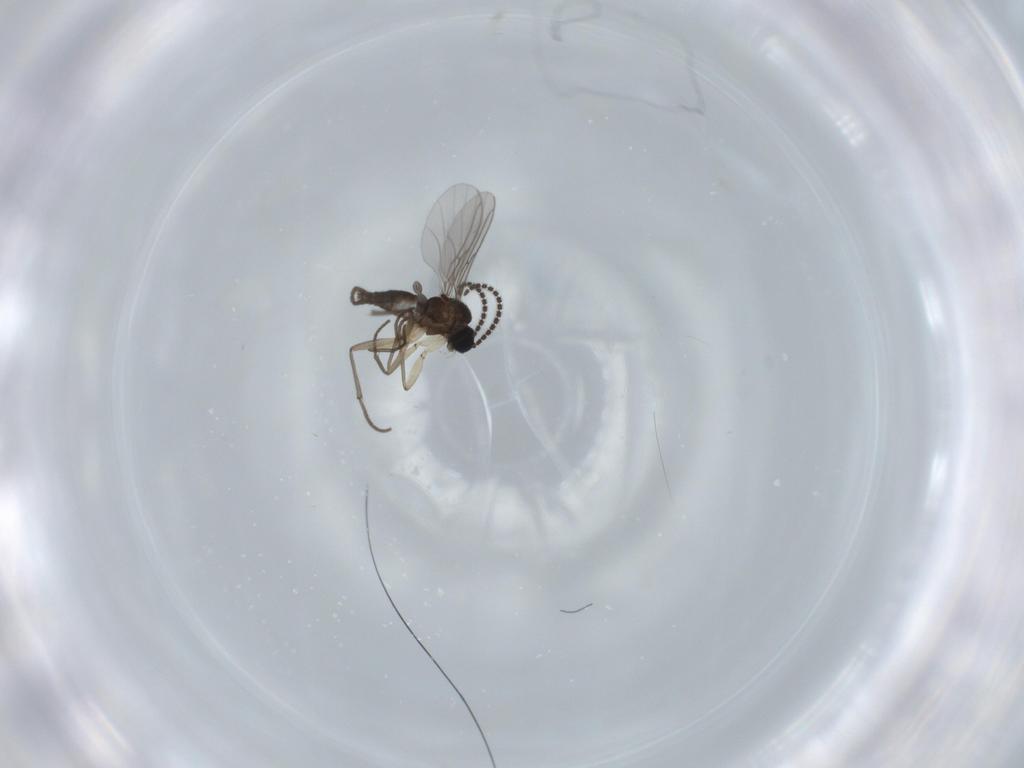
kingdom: Animalia
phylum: Arthropoda
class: Insecta
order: Diptera
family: Sciaridae
